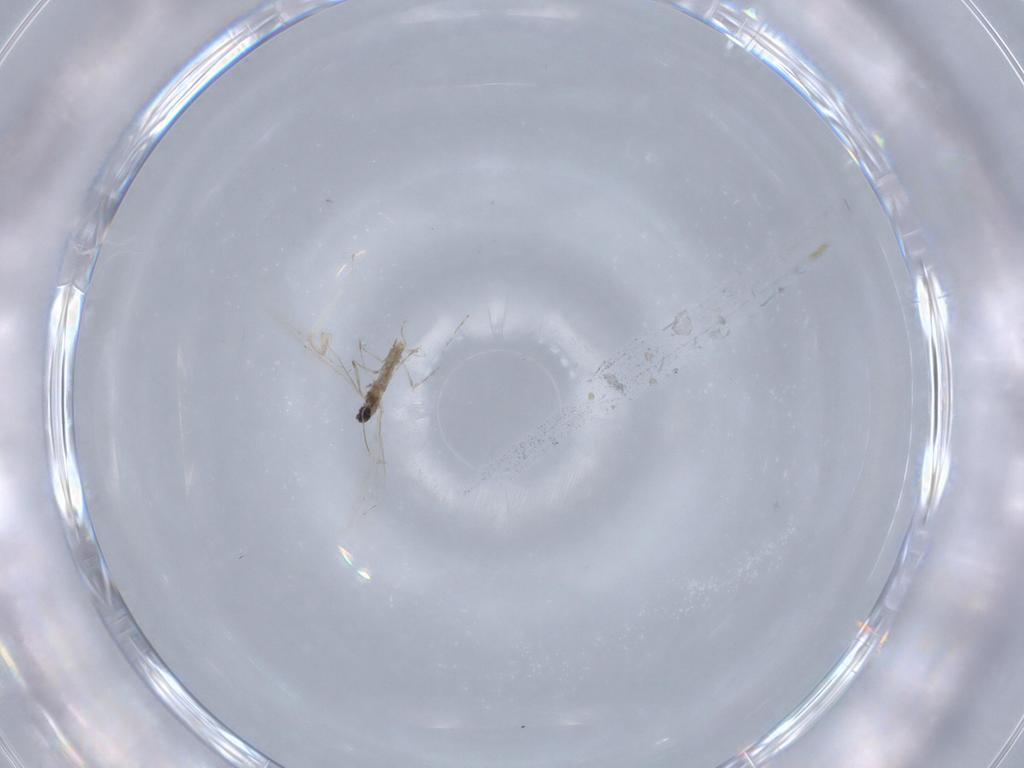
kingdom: Animalia
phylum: Arthropoda
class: Insecta
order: Diptera
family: Cecidomyiidae
